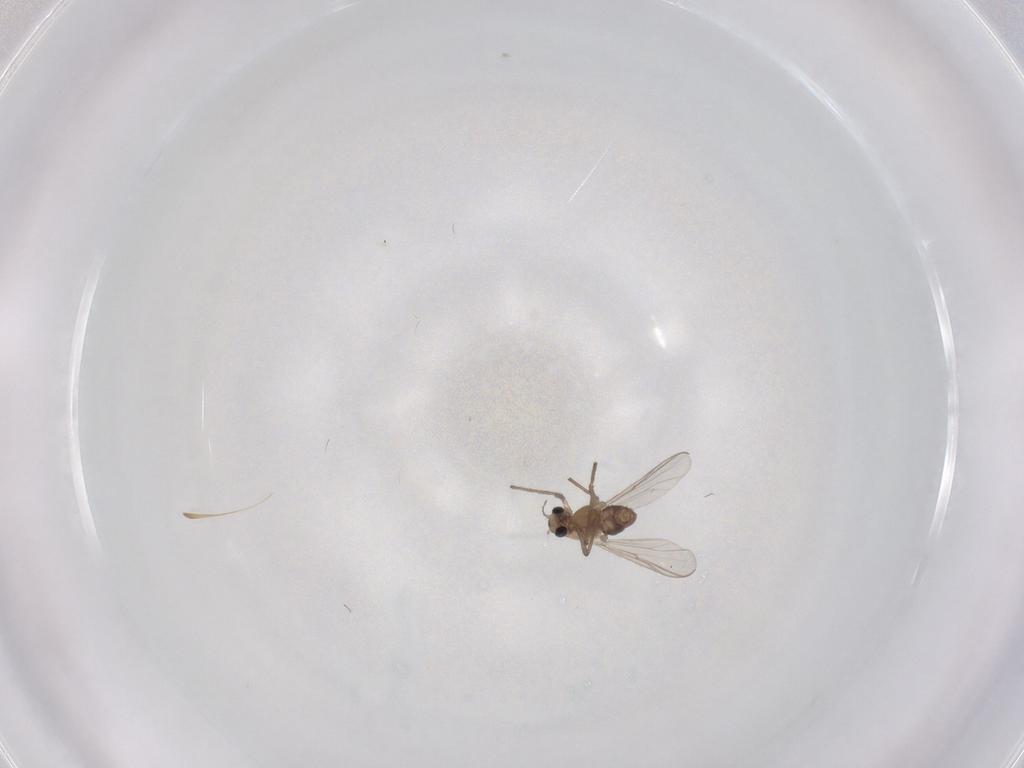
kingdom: Animalia
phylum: Arthropoda
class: Insecta
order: Diptera
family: Chironomidae
